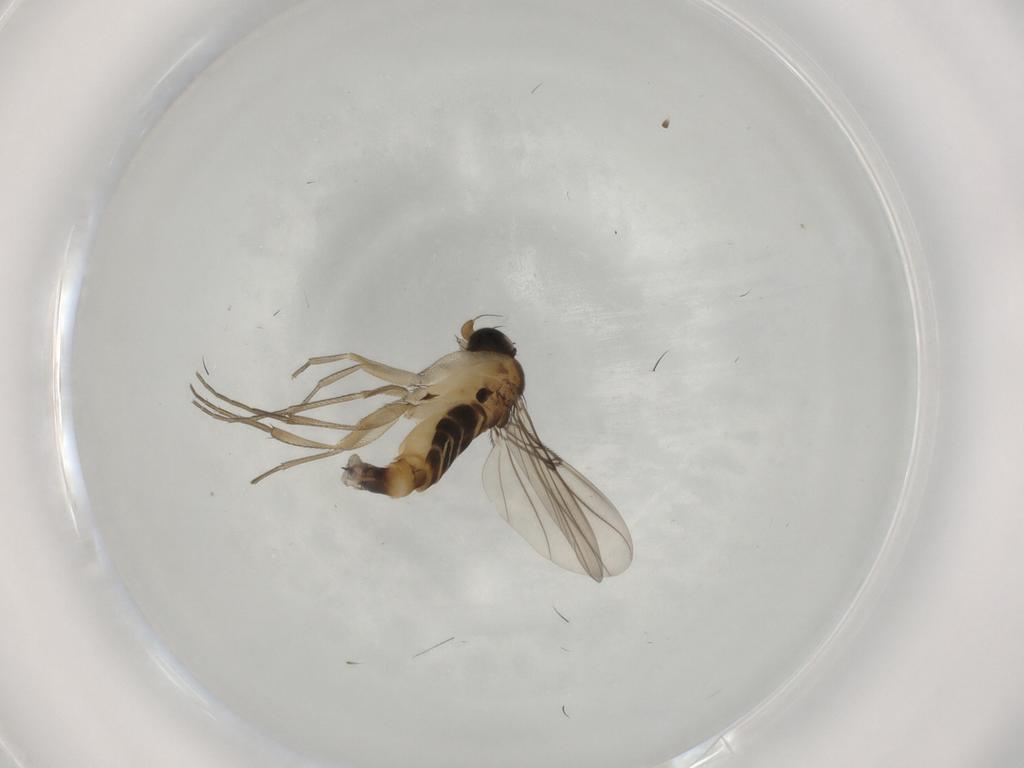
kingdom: Animalia
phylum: Arthropoda
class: Insecta
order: Diptera
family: Phoridae
